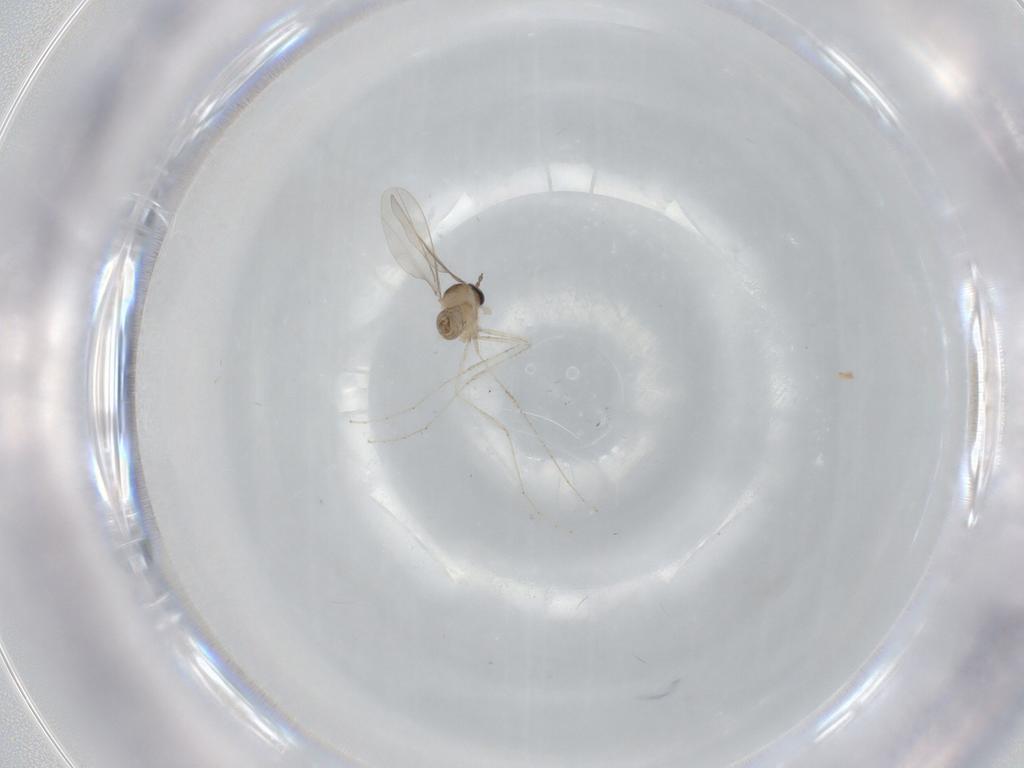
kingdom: Animalia
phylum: Arthropoda
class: Insecta
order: Diptera
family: Cecidomyiidae
